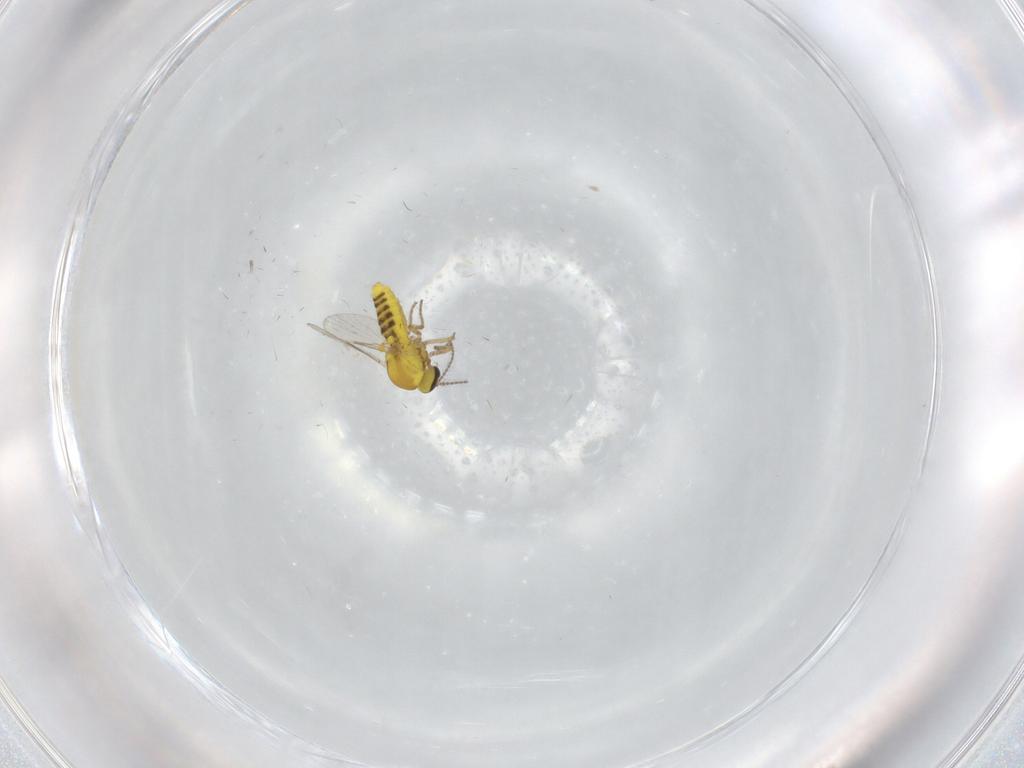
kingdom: Animalia
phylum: Arthropoda
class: Insecta
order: Diptera
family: Ceratopogonidae
